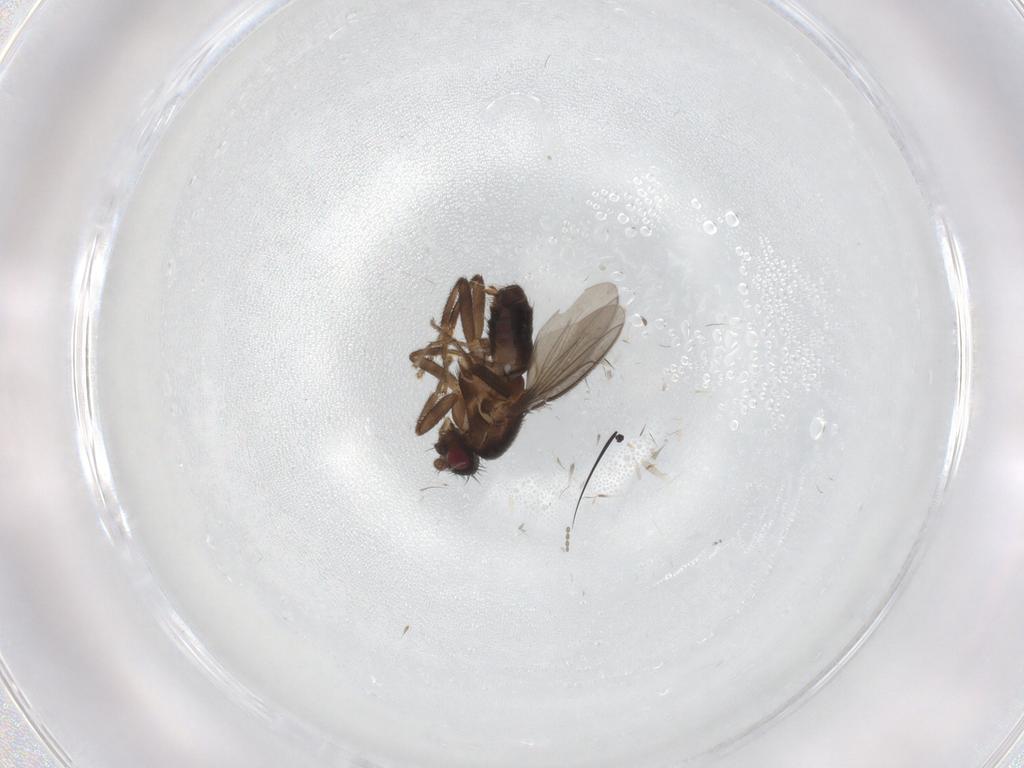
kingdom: Animalia
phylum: Arthropoda
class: Insecta
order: Diptera
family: Sphaeroceridae
